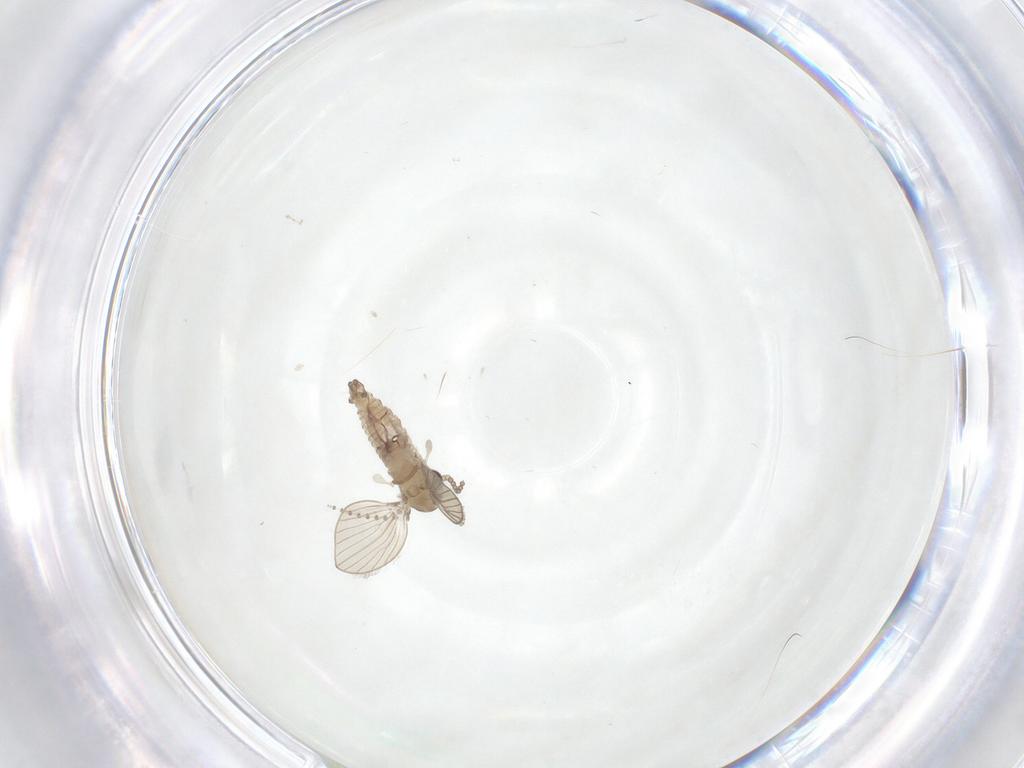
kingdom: Animalia
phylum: Arthropoda
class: Insecta
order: Diptera
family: Psychodidae
